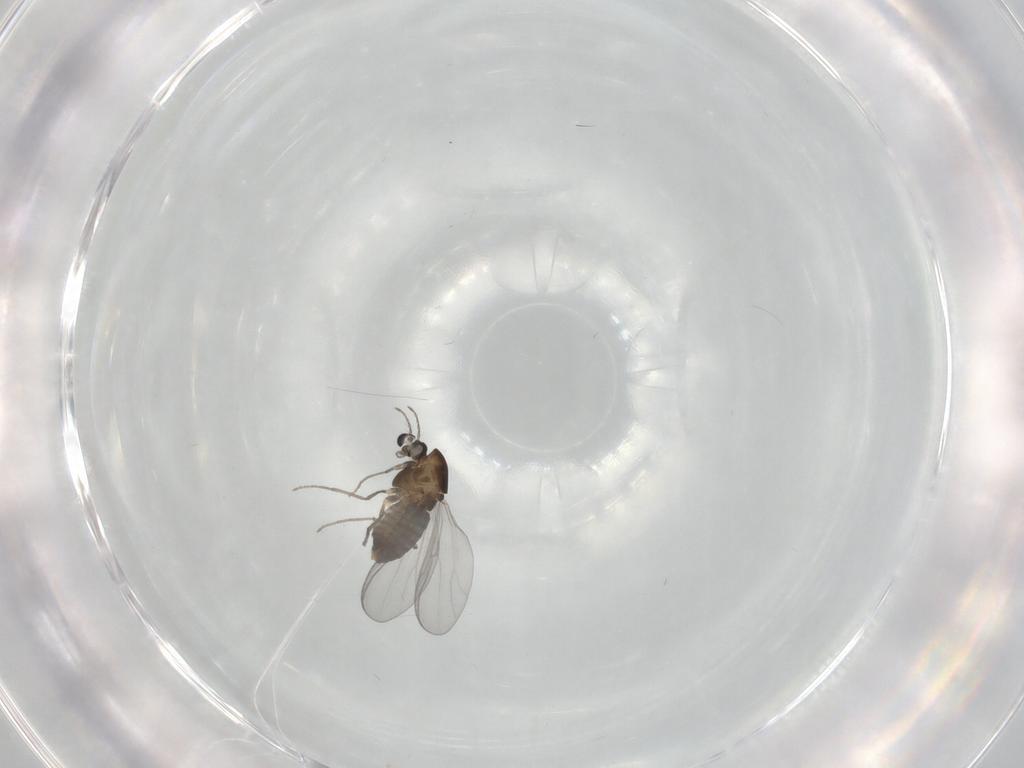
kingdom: Animalia
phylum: Arthropoda
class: Insecta
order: Diptera
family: Chironomidae
